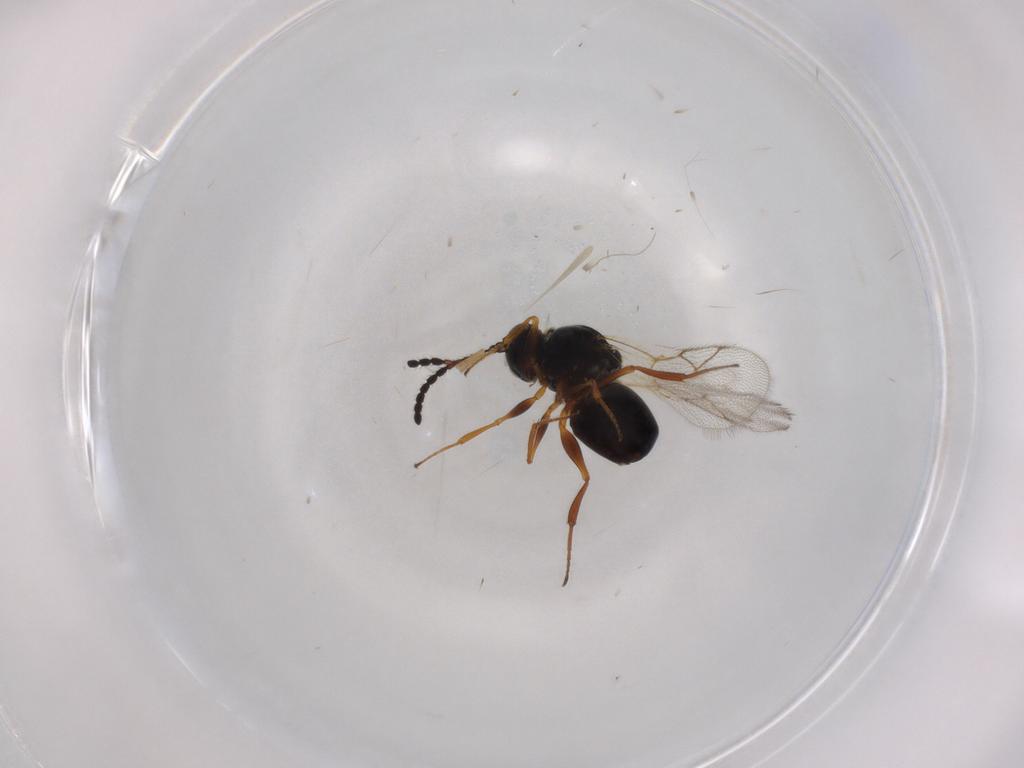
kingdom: Animalia
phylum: Arthropoda
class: Insecta
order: Hymenoptera
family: Figitidae
